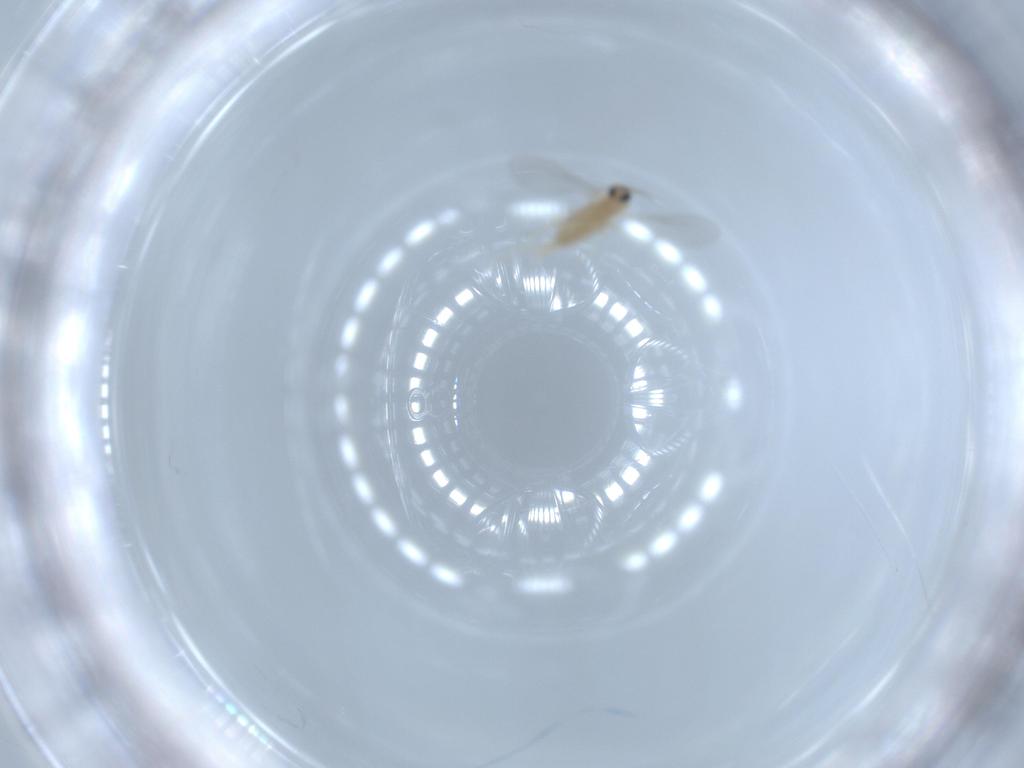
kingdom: Animalia
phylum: Arthropoda
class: Insecta
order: Diptera
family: Cecidomyiidae
